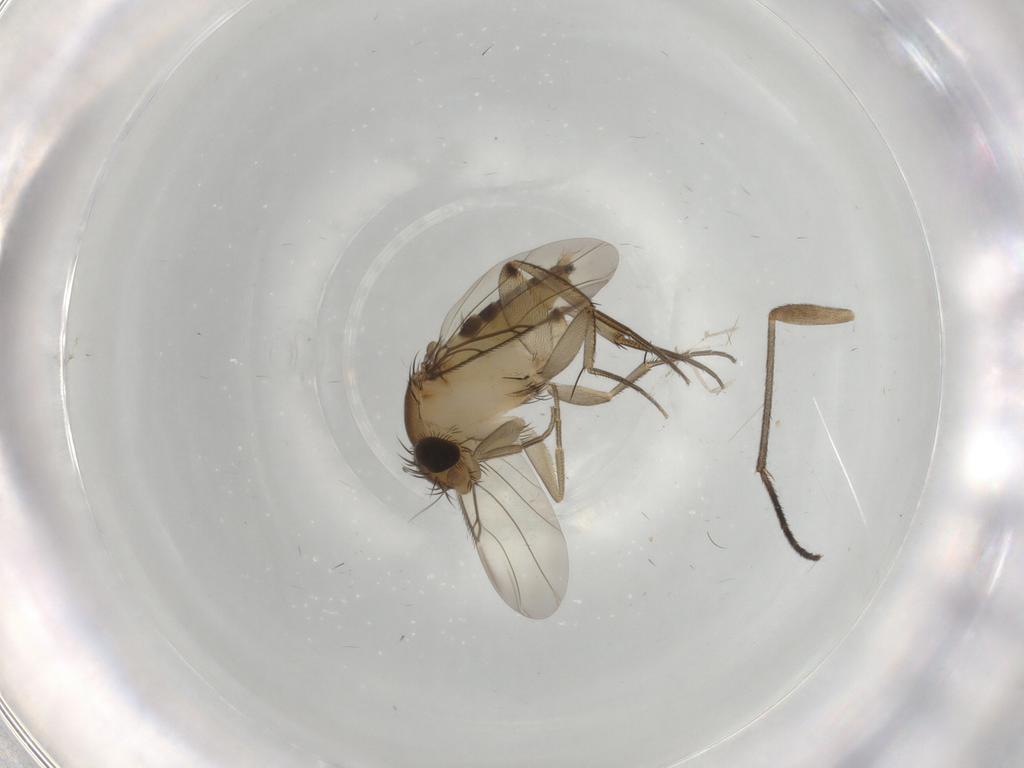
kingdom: Animalia
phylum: Arthropoda
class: Insecta
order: Diptera
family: Phoridae
